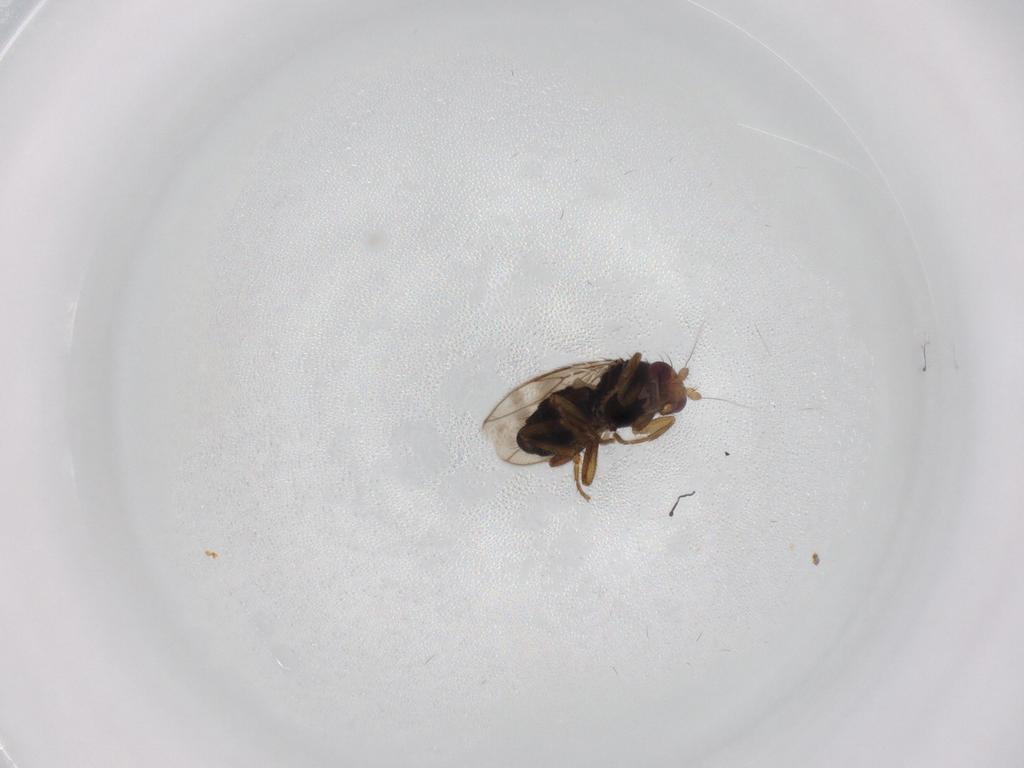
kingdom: Animalia
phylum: Arthropoda
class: Insecta
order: Diptera
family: Sphaeroceridae
